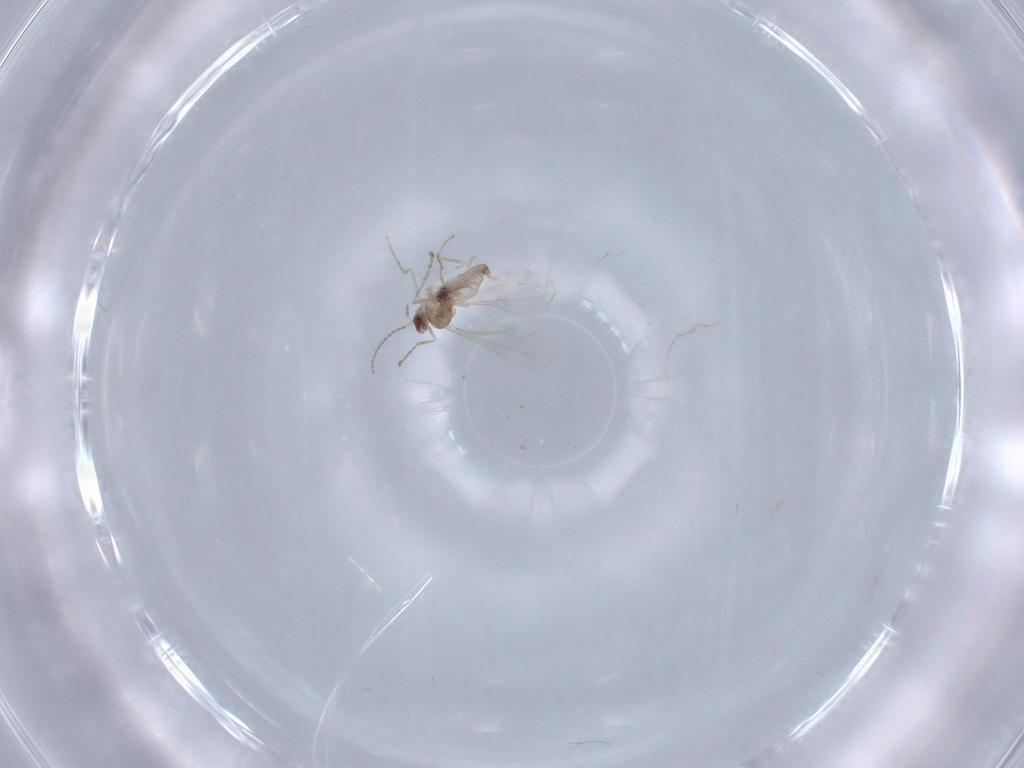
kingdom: Animalia
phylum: Arthropoda
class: Insecta
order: Diptera
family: Cecidomyiidae
